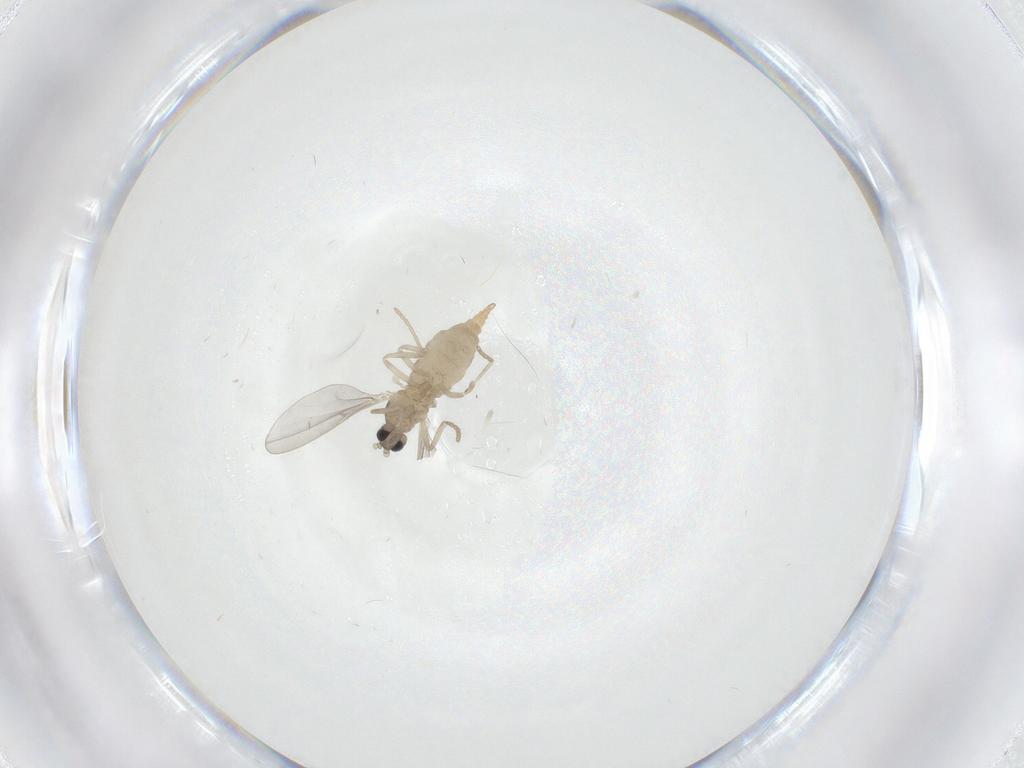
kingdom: Animalia
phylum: Arthropoda
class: Insecta
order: Diptera
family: Cecidomyiidae
